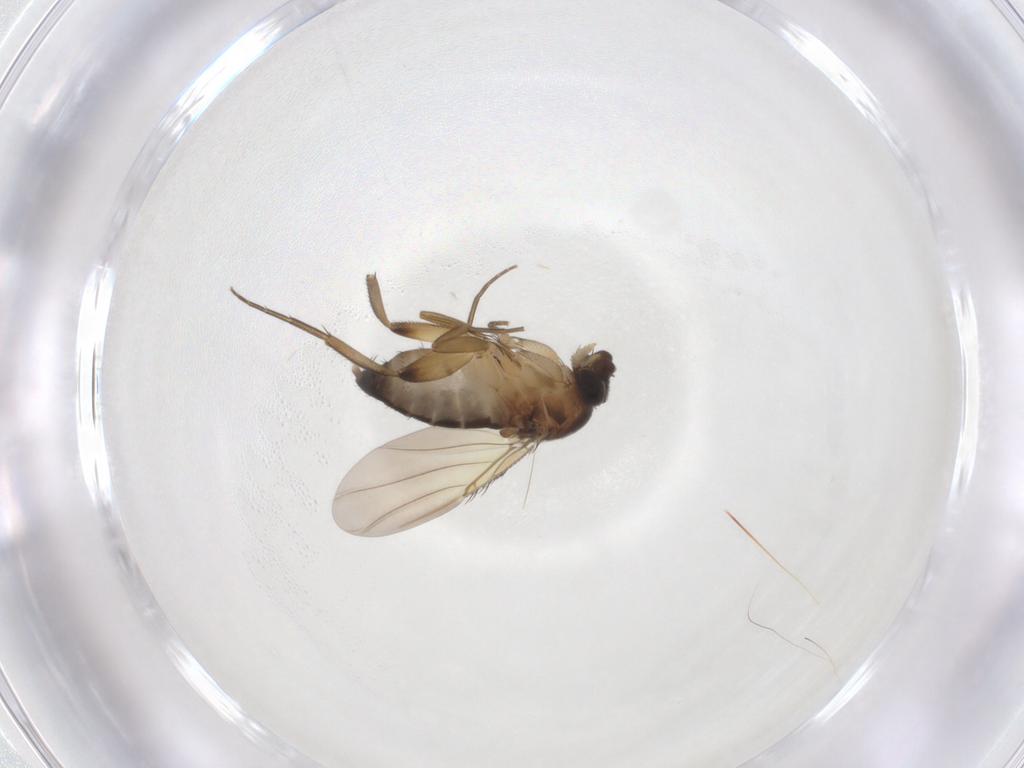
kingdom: Animalia
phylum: Arthropoda
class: Insecta
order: Diptera
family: Phoridae
